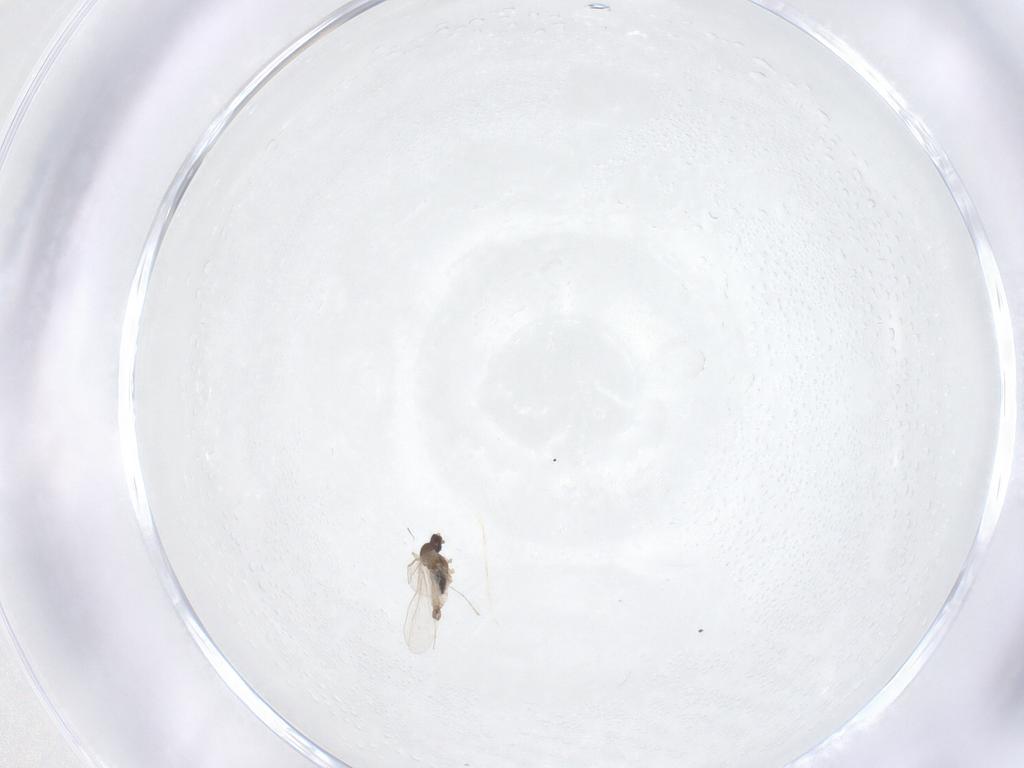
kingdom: Animalia
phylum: Arthropoda
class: Insecta
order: Diptera
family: Cecidomyiidae
